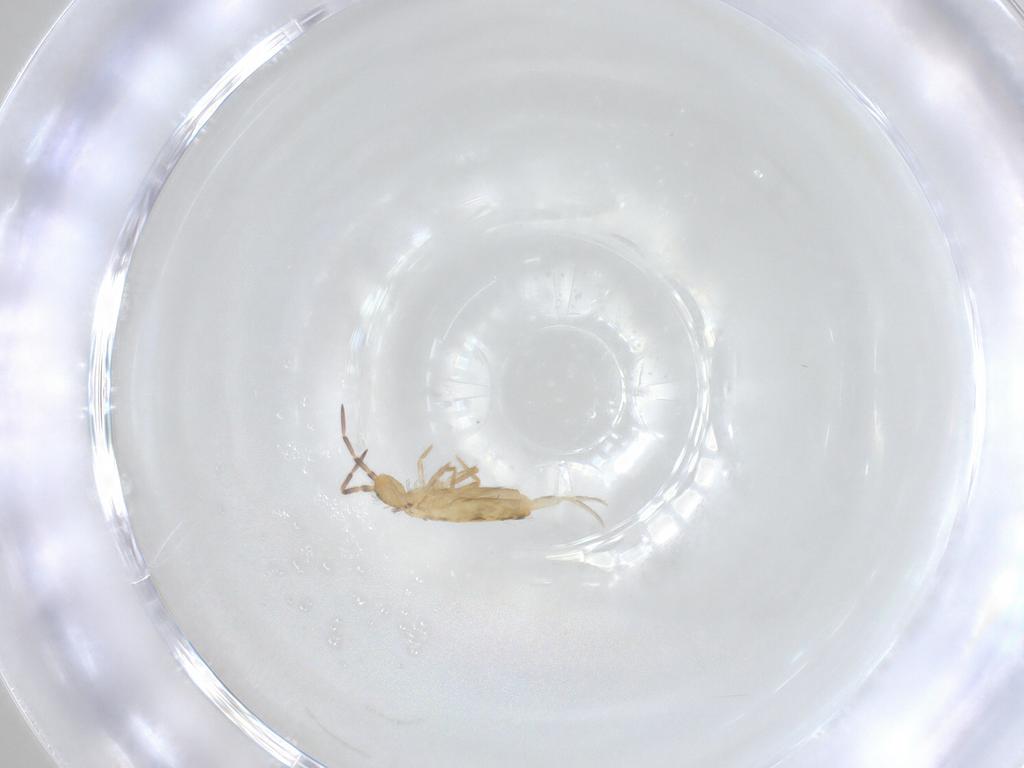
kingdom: Animalia
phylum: Arthropoda
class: Collembola
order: Entomobryomorpha
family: Entomobryidae
